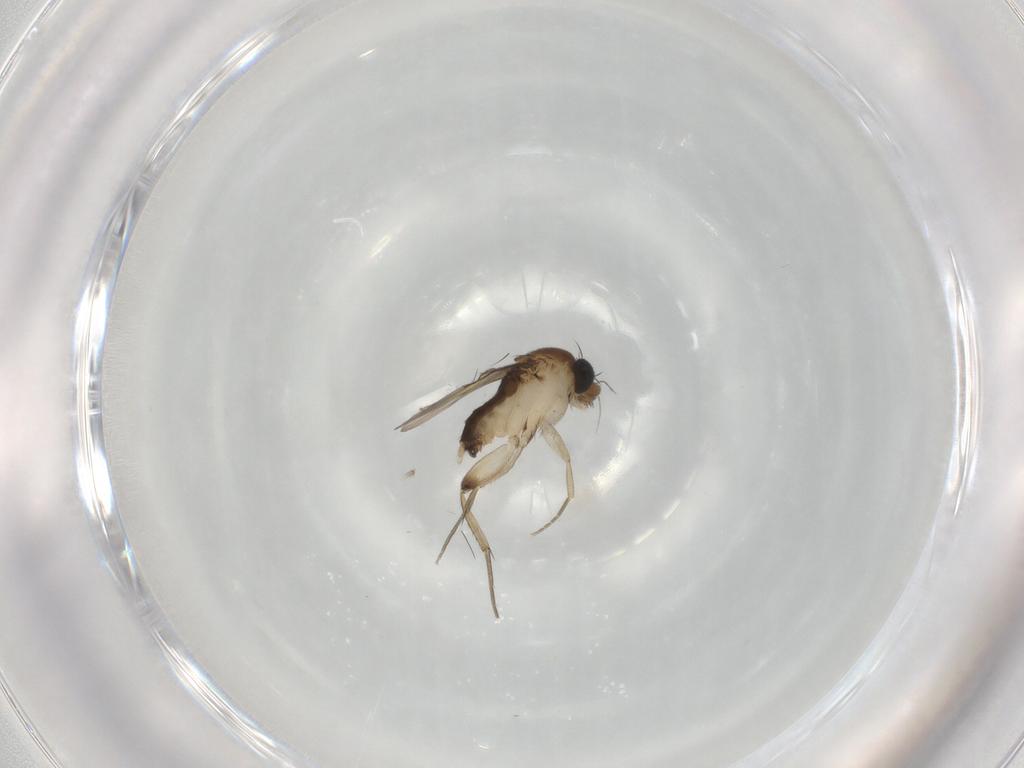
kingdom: Animalia
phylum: Arthropoda
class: Insecta
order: Diptera
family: Phoridae
